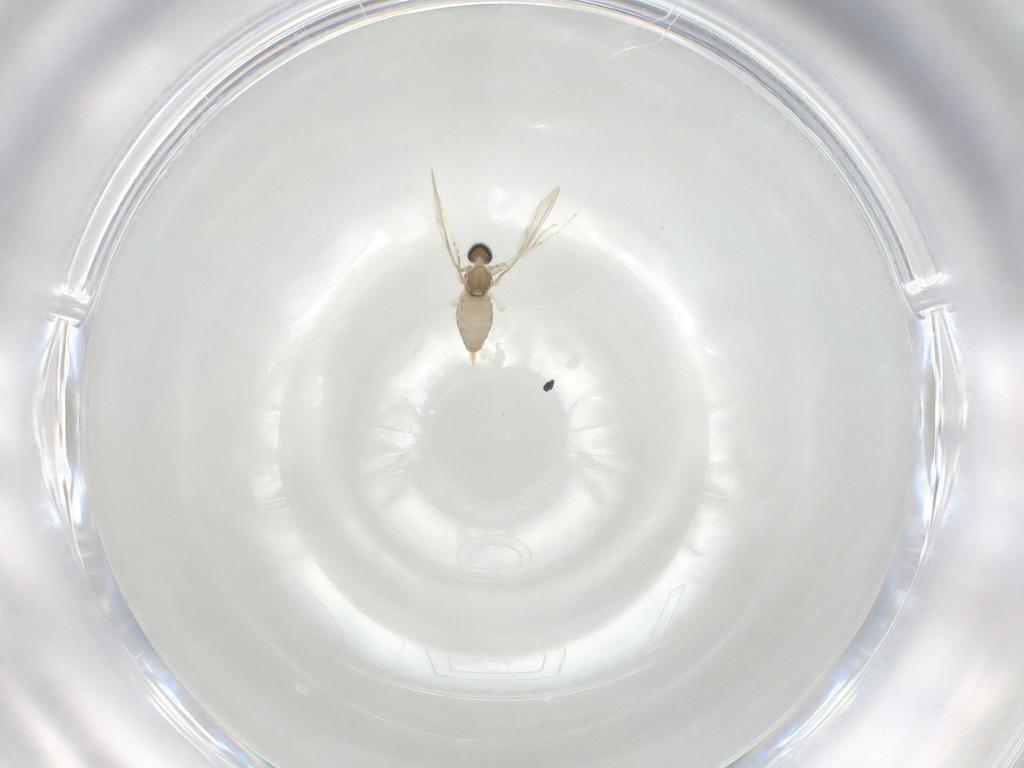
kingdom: Animalia
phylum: Arthropoda
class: Insecta
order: Diptera
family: Cecidomyiidae
